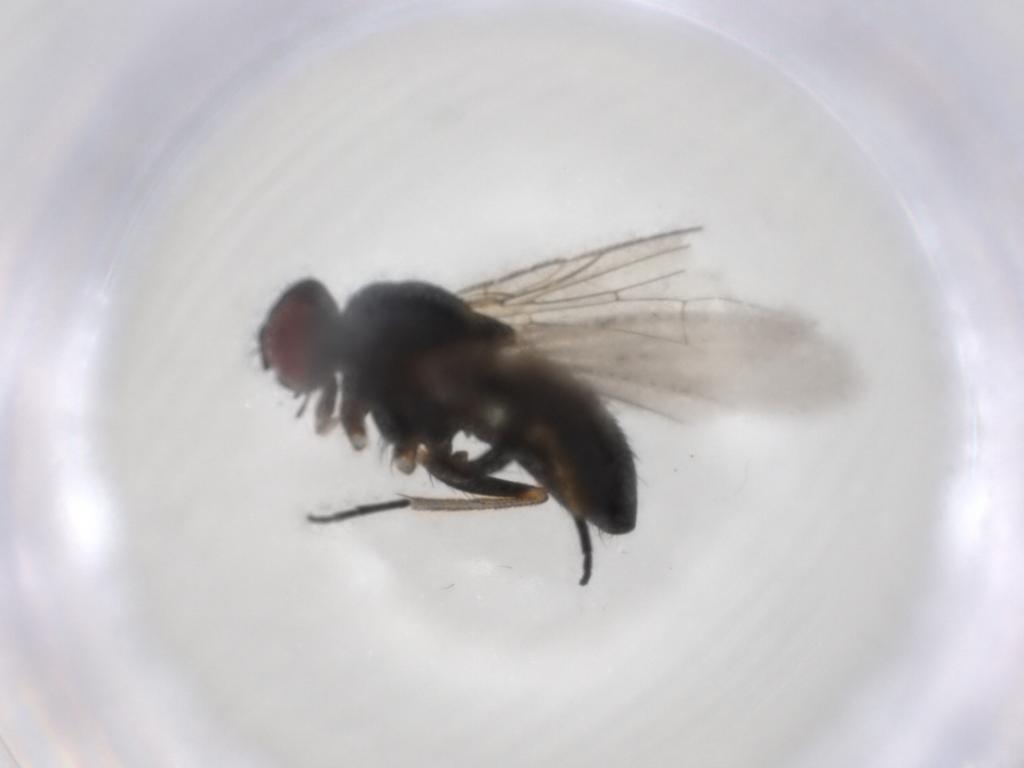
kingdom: Animalia
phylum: Arthropoda
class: Insecta
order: Diptera
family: Muscidae
